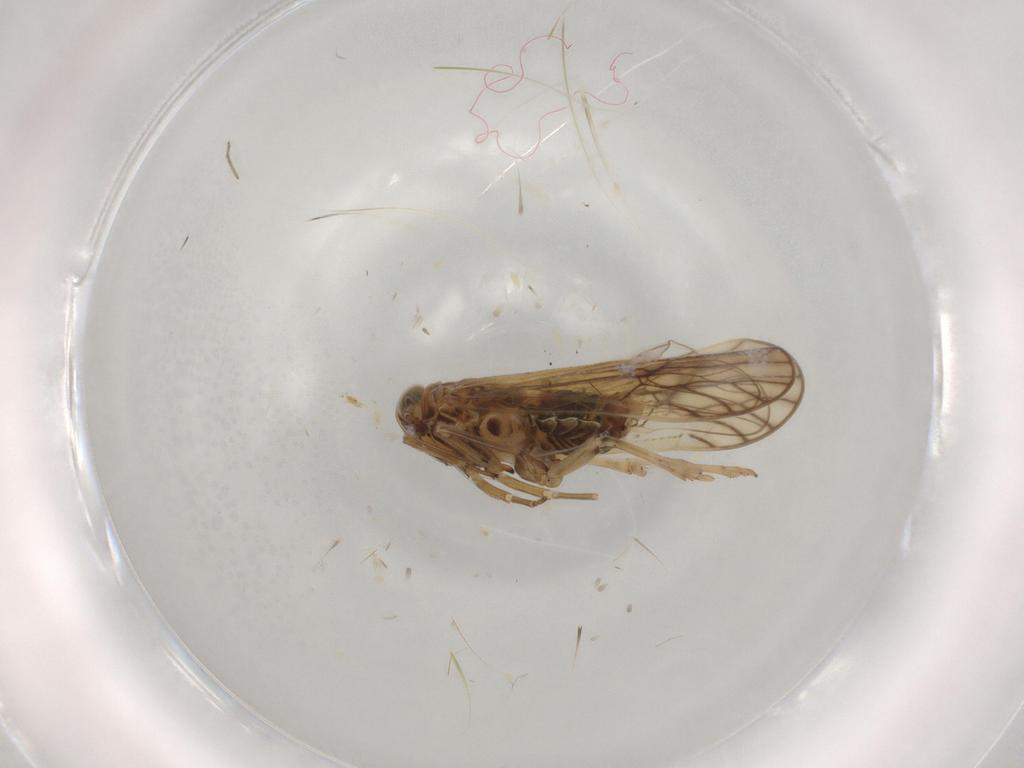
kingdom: Animalia
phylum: Arthropoda
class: Insecta
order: Hemiptera
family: Delphacidae
